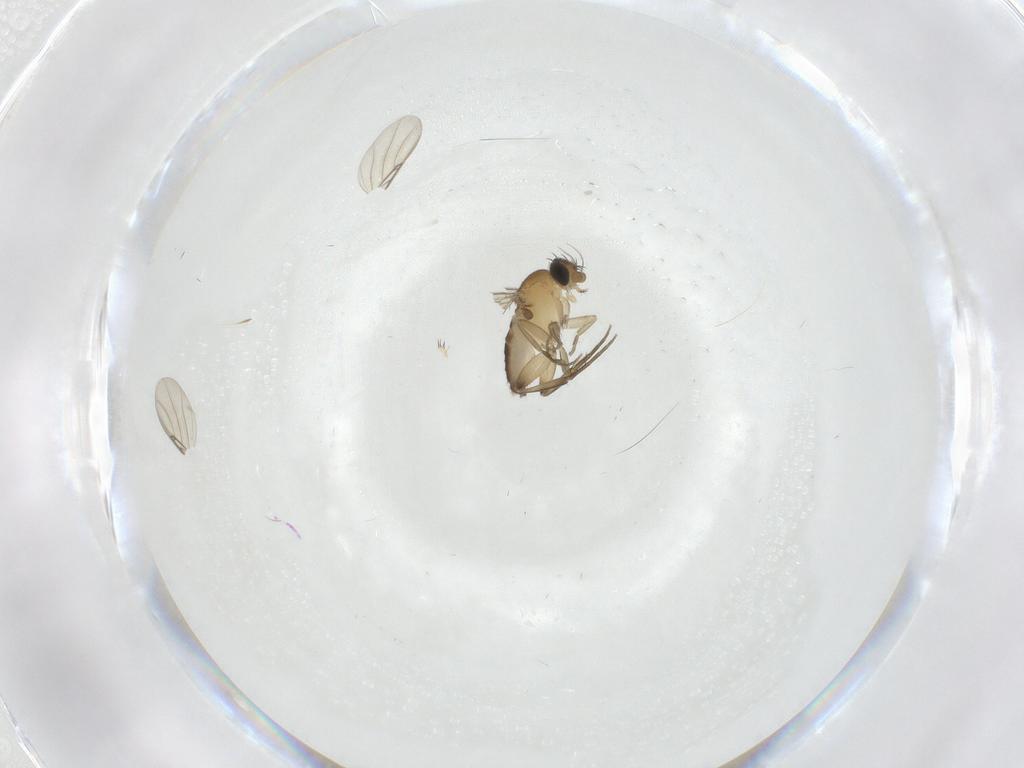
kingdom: Animalia
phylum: Arthropoda
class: Insecta
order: Diptera
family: Phoridae
